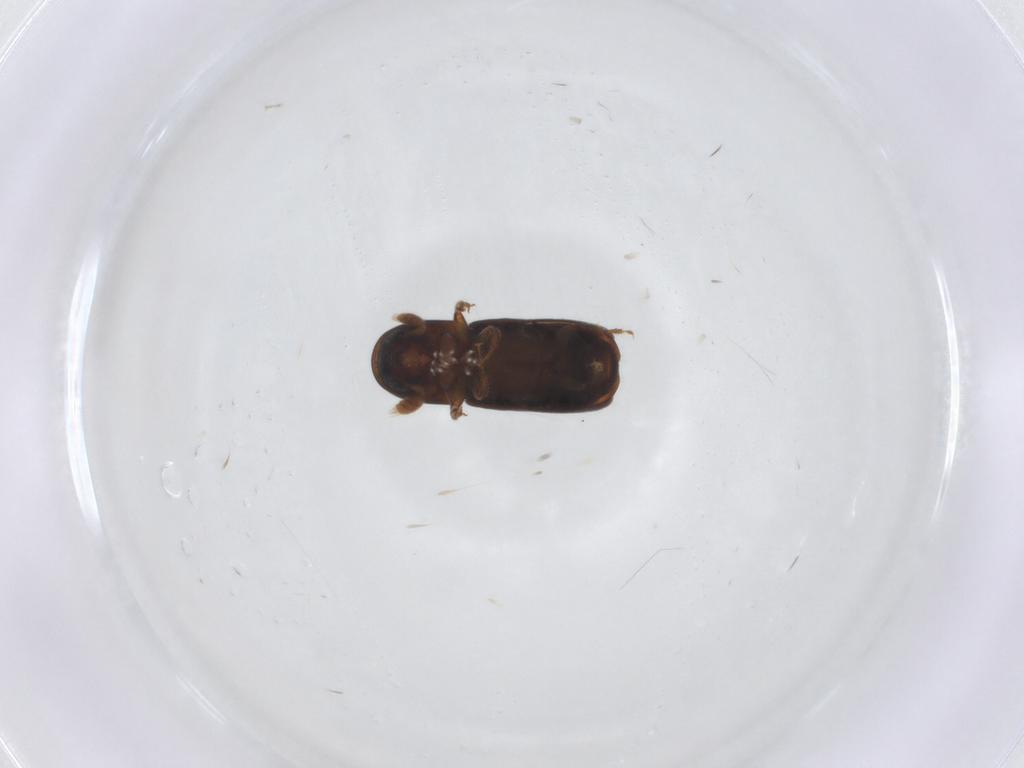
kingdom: Animalia
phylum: Arthropoda
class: Insecta
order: Coleoptera
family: Curculionidae
